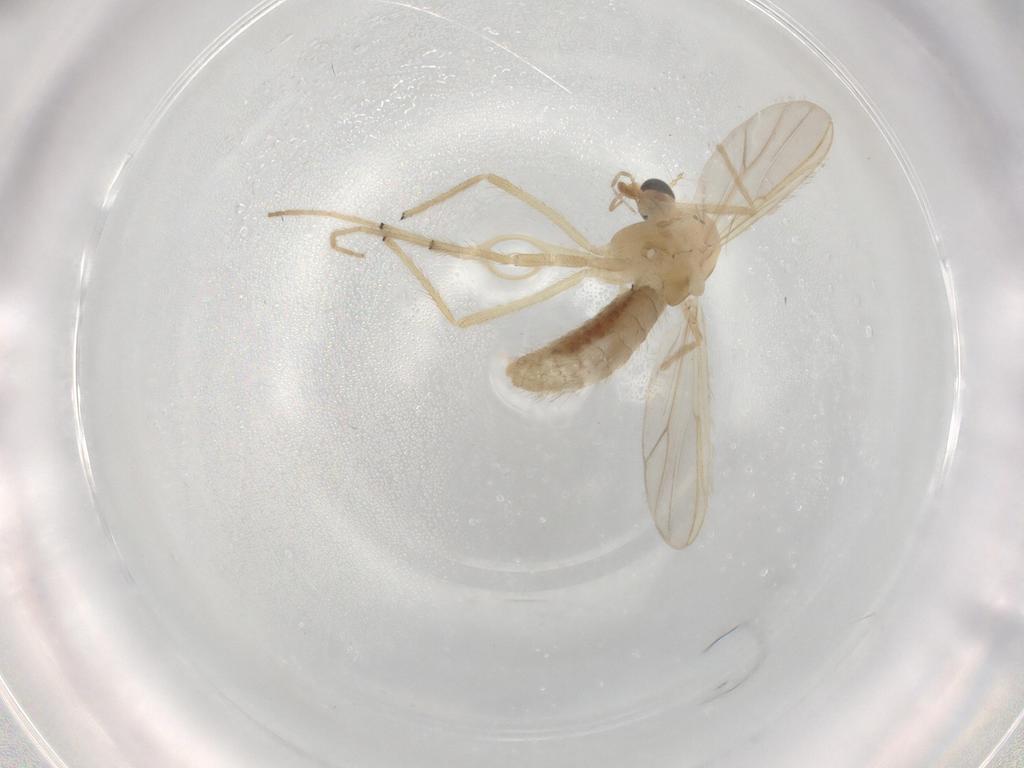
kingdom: Animalia
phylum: Arthropoda
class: Insecta
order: Diptera
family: Chironomidae
